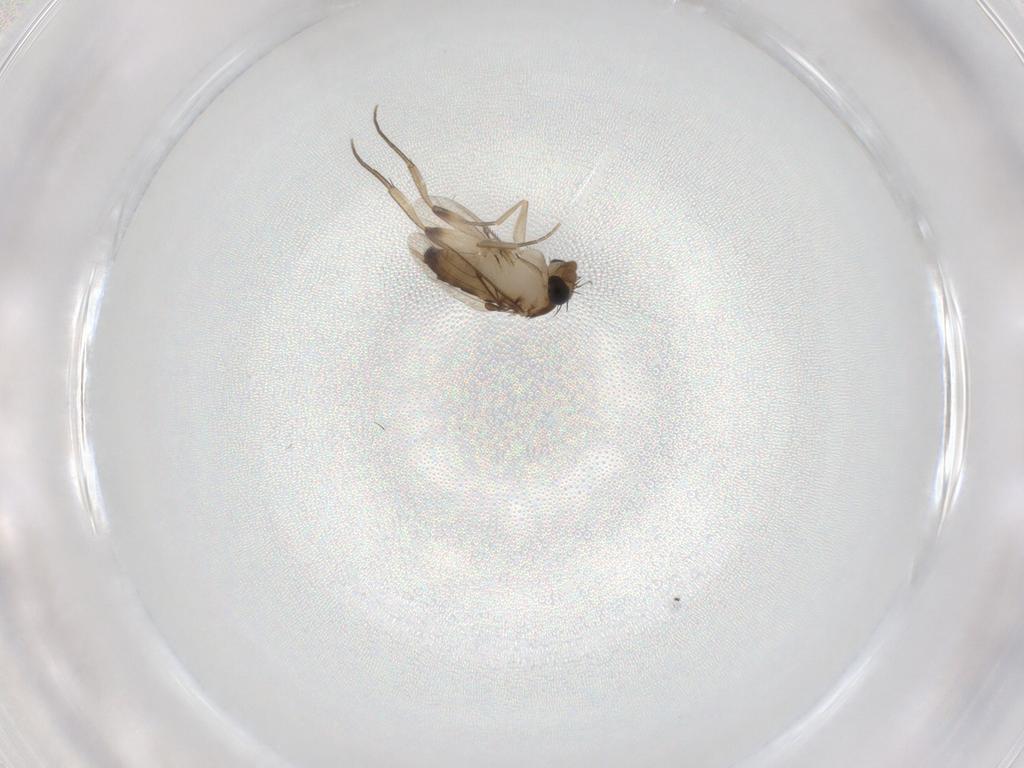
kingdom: Animalia
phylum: Arthropoda
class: Insecta
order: Diptera
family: Phoridae
